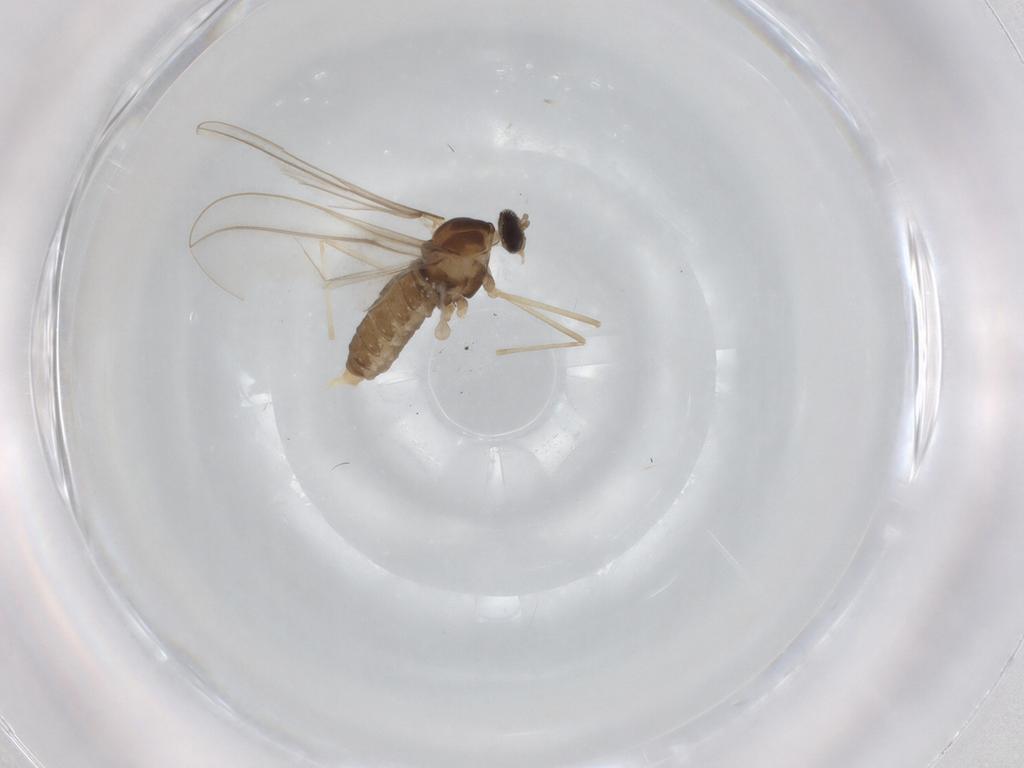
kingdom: Animalia
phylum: Arthropoda
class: Insecta
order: Diptera
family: Cecidomyiidae
